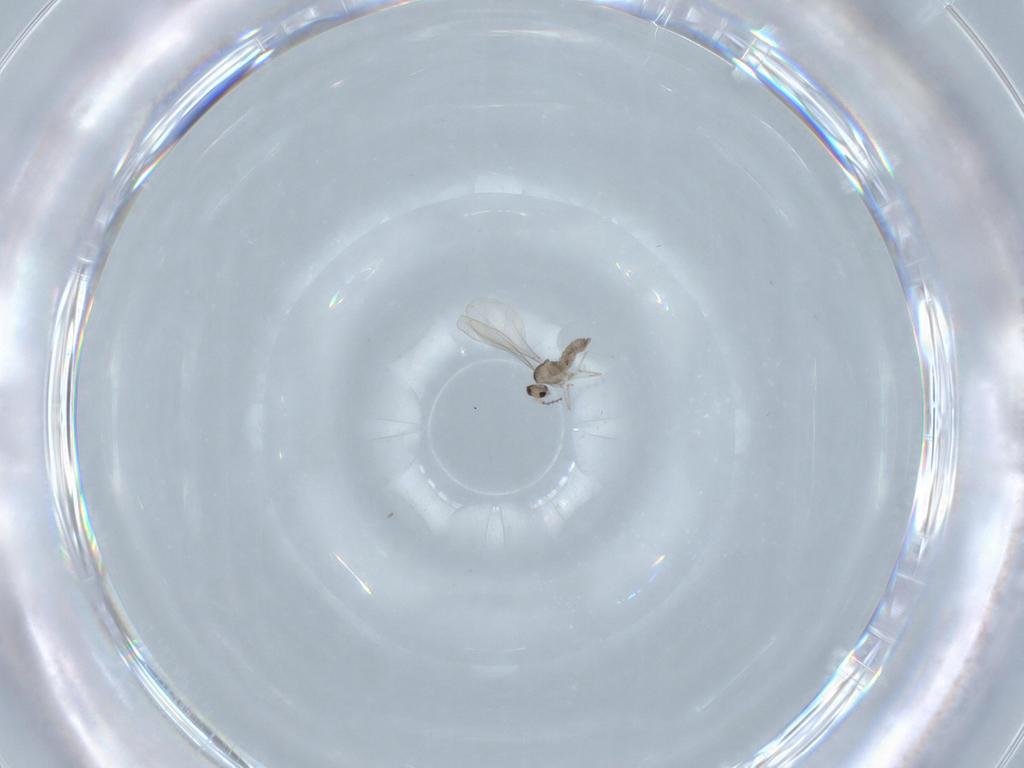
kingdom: Animalia
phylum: Arthropoda
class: Insecta
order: Diptera
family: Cecidomyiidae
